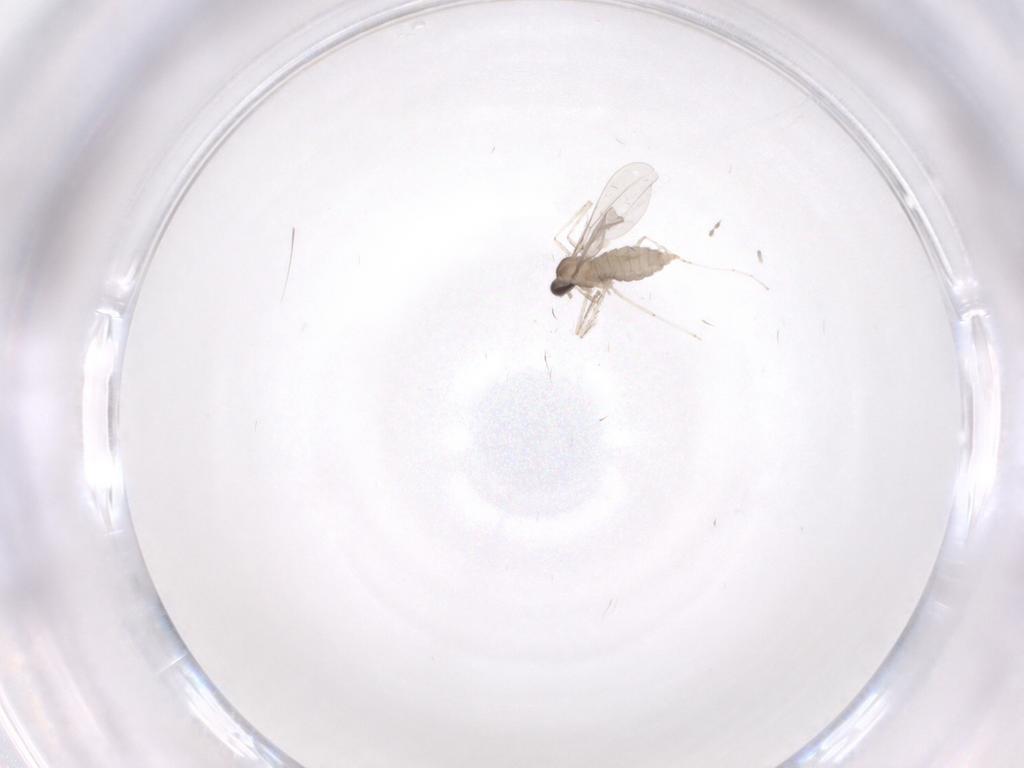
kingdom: Animalia
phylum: Arthropoda
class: Insecta
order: Diptera
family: Cecidomyiidae
